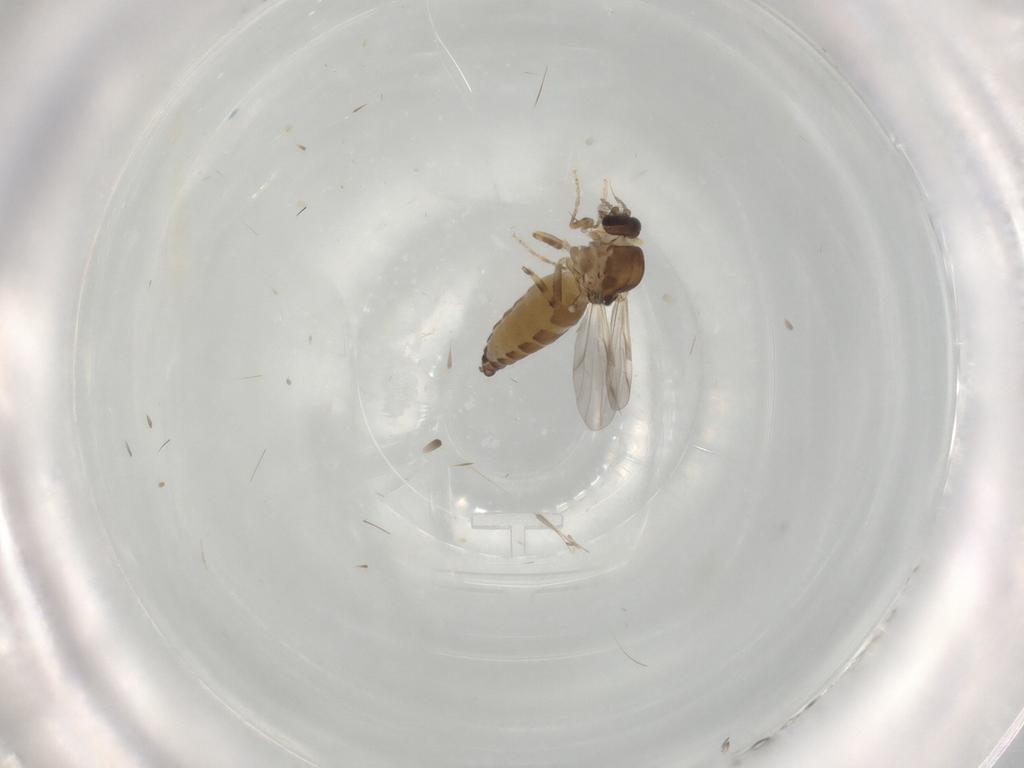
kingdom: Animalia
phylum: Arthropoda
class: Insecta
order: Diptera
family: Ceratopogonidae
